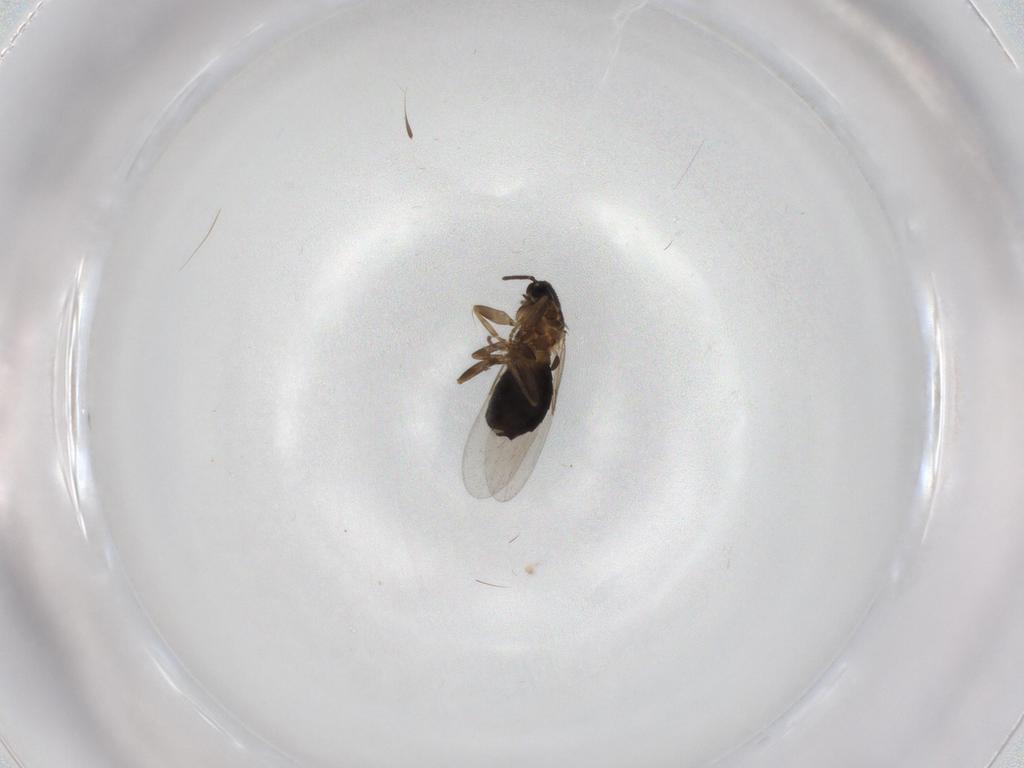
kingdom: Animalia
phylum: Arthropoda
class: Insecta
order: Diptera
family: Scatopsidae
